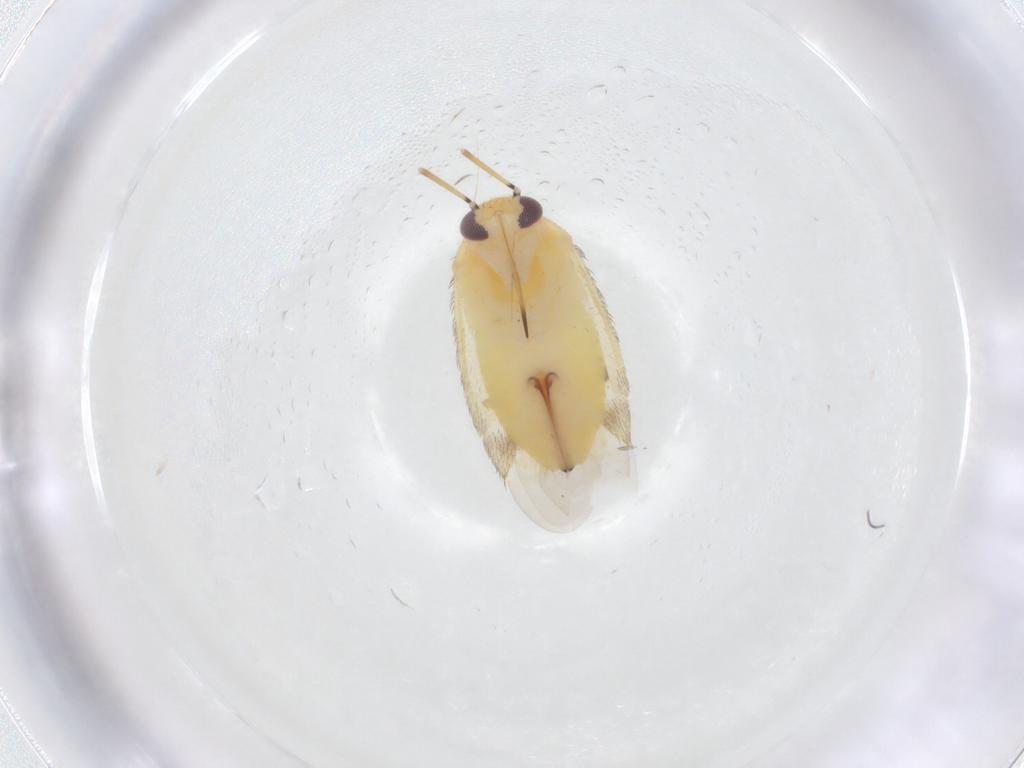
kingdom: Animalia
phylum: Arthropoda
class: Insecta
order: Hemiptera
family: Miridae
